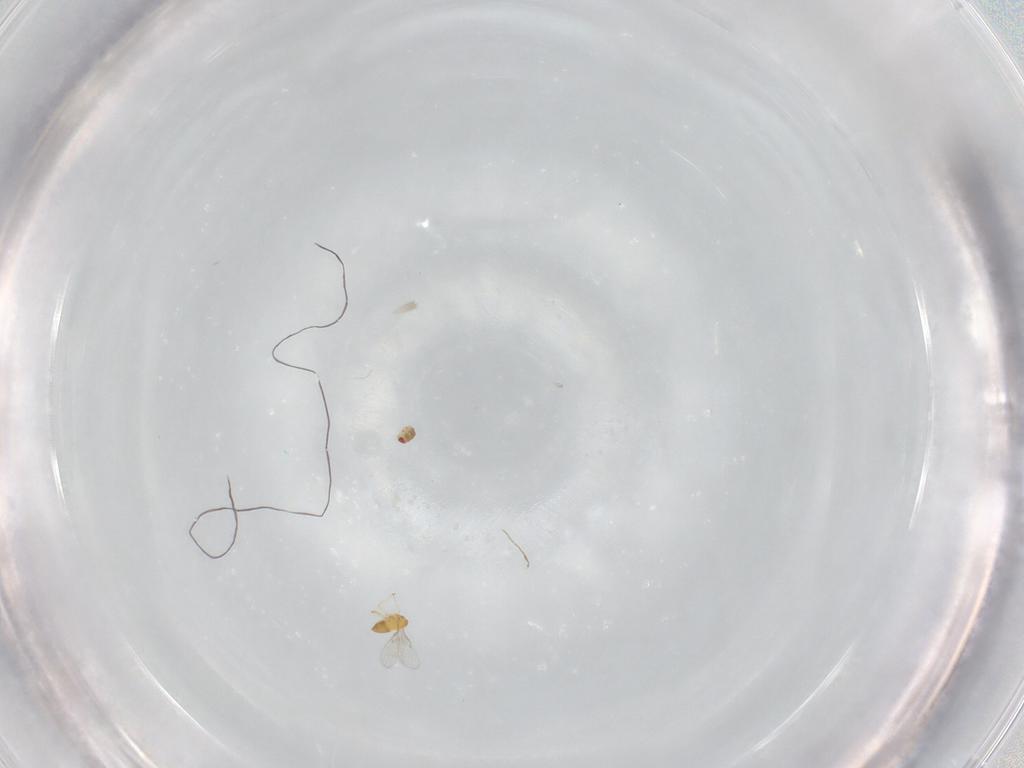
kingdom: Animalia
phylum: Arthropoda
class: Insecta
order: Hymenoptera
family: Trichogrammatidae
